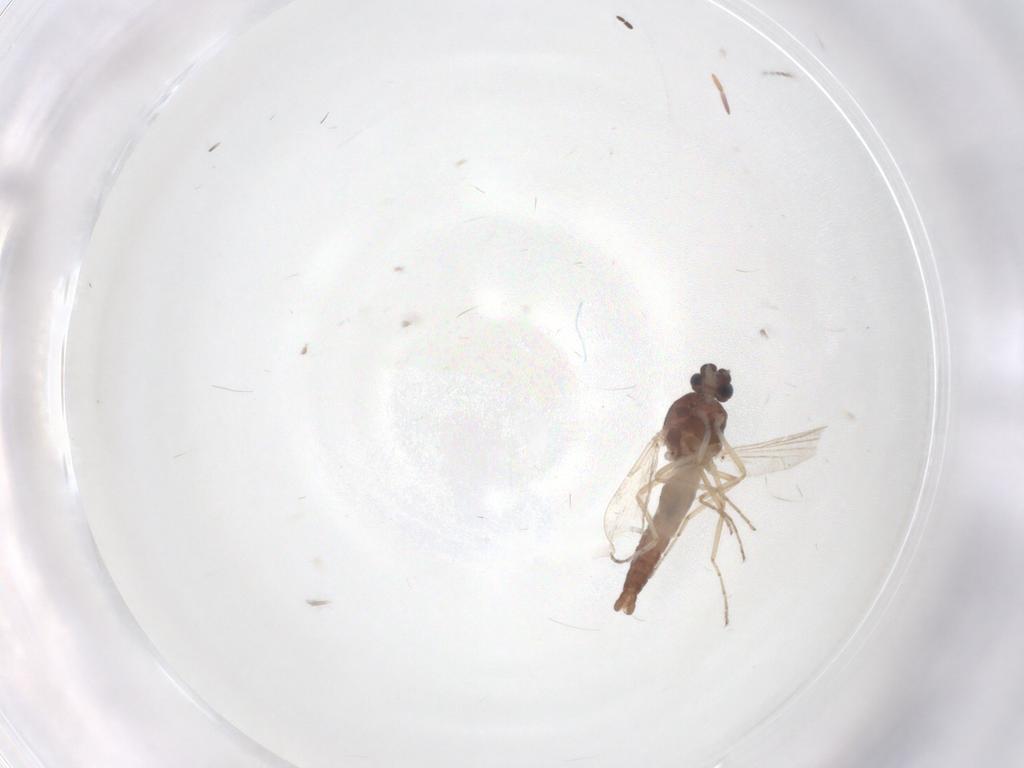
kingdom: Animalia
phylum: Arthropoda
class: Insecta
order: Diptera
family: Ceratopogonidae
